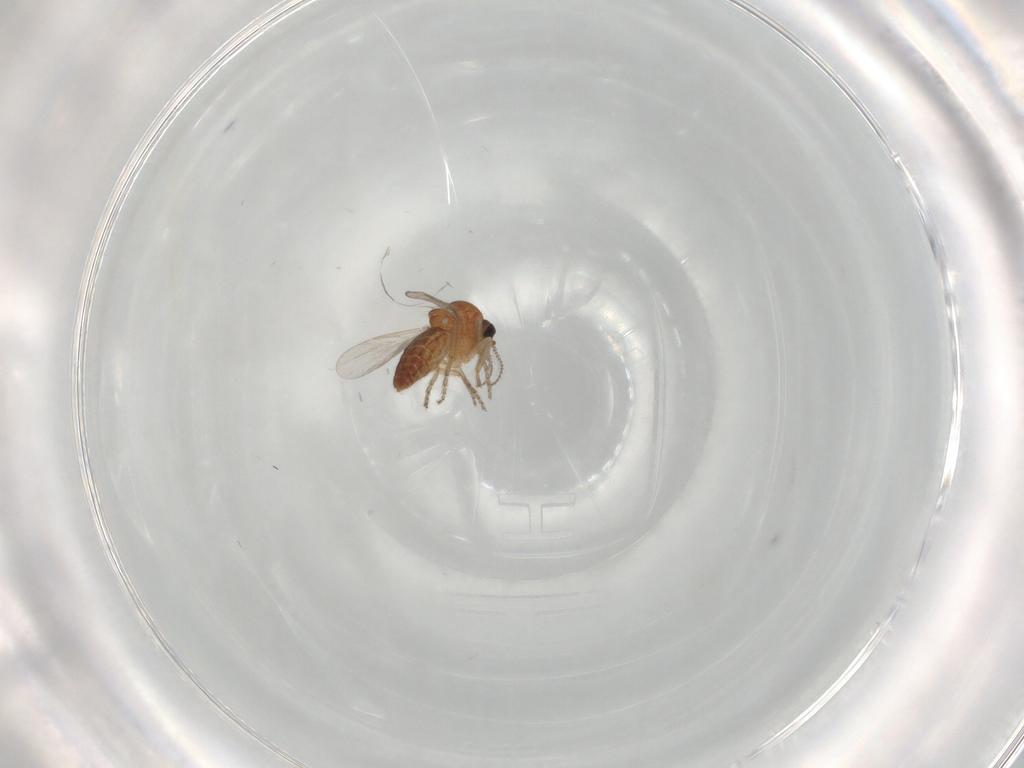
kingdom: Animalia
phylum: Arthropoda
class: Insecta
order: Diptera
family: Ceratopogonidae
